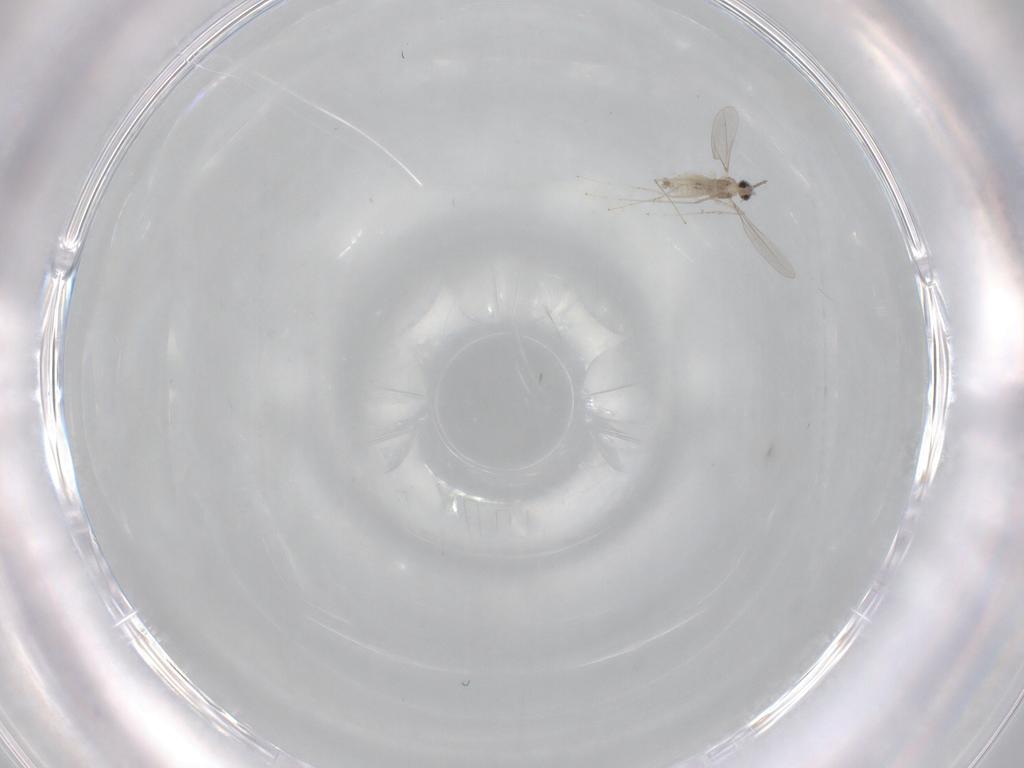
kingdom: Animalia
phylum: Arthropoda
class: Insecta
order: Diptera
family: Cecidomyiidae
